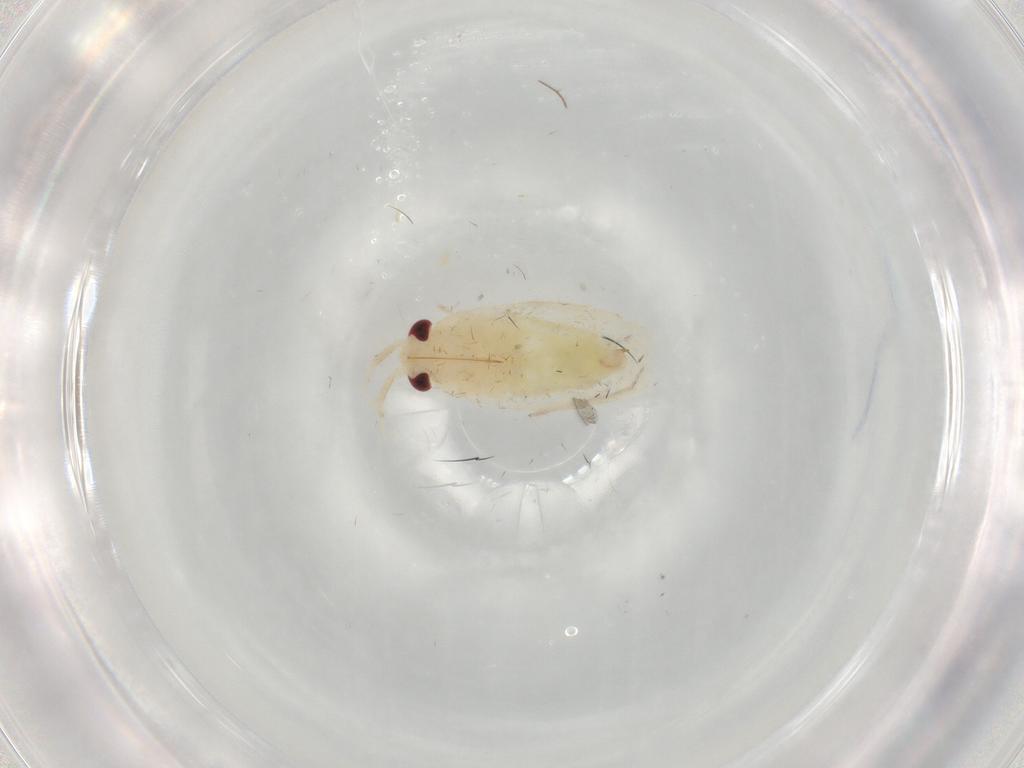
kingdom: Animalia
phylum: Arthropoda
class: Insecta
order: Hemiptera
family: Miridae
